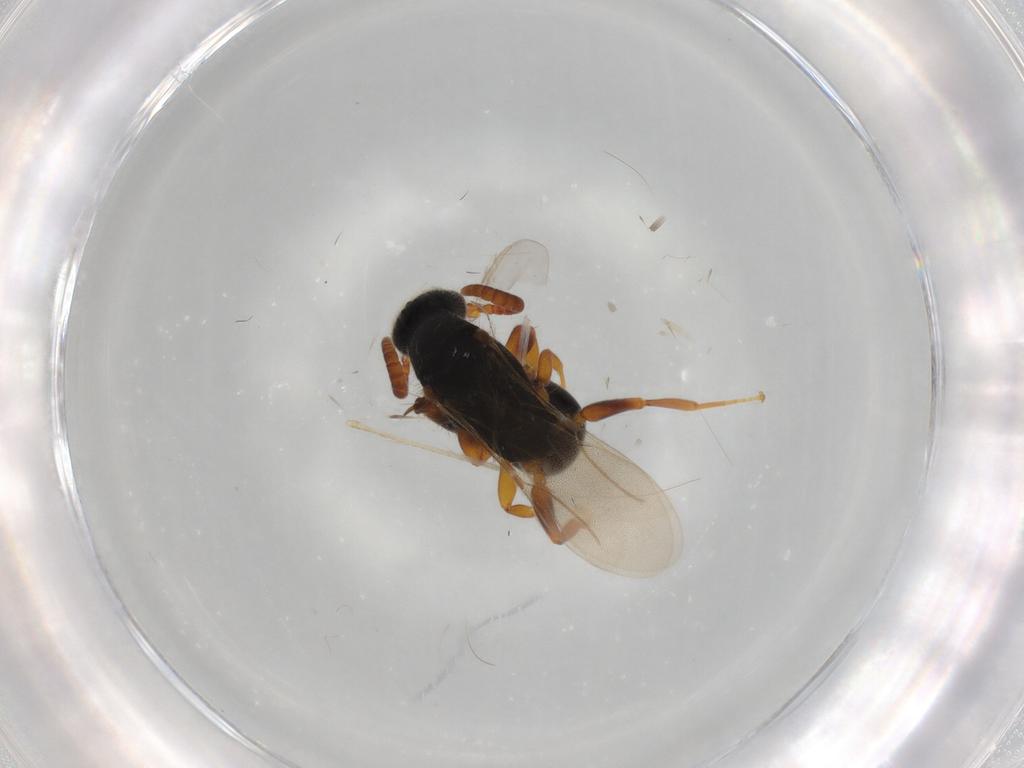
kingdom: Animalia
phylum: Arthropoda
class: Insecta
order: Hymenoptera
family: Bethylidae
